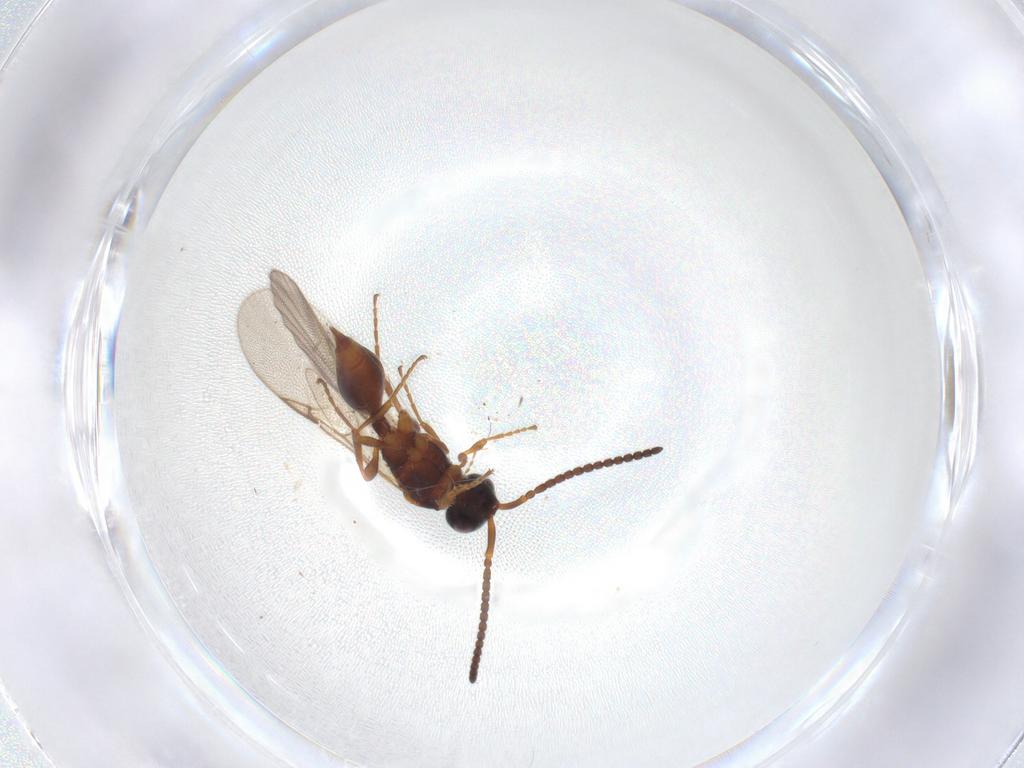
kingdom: Animalia
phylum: Arthropoda
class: Insecta
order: Hymenoptera
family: Diapriidae
